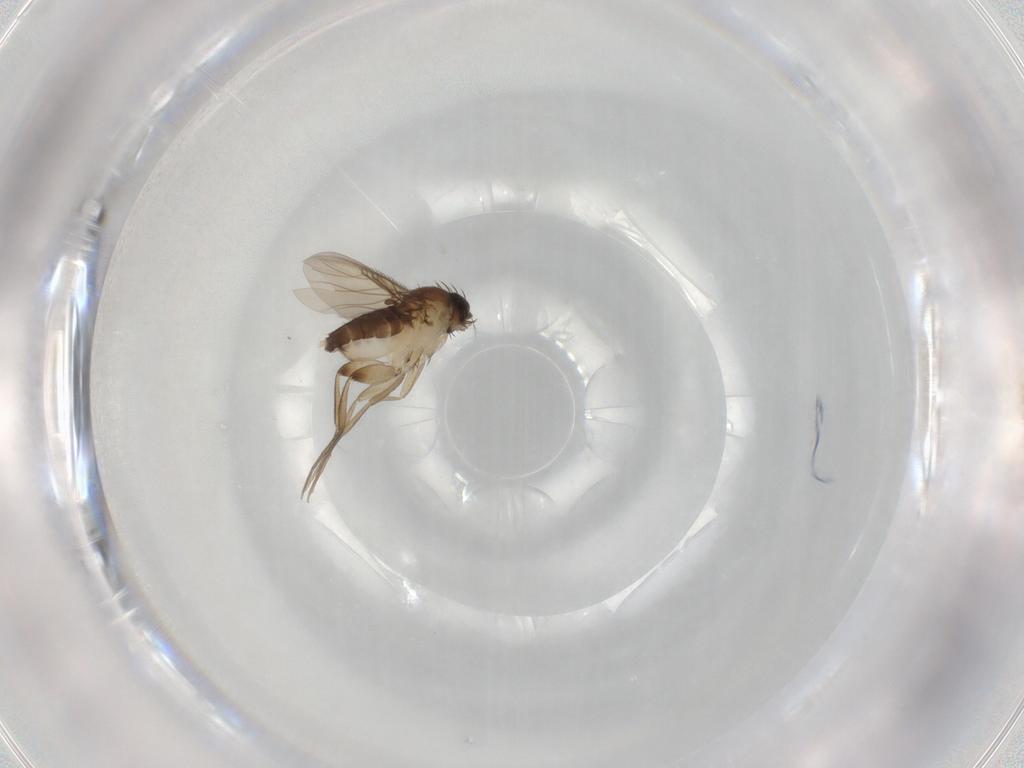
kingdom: Animalia
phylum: Arthropoda
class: Insecta
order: Diptera
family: Phoridae
